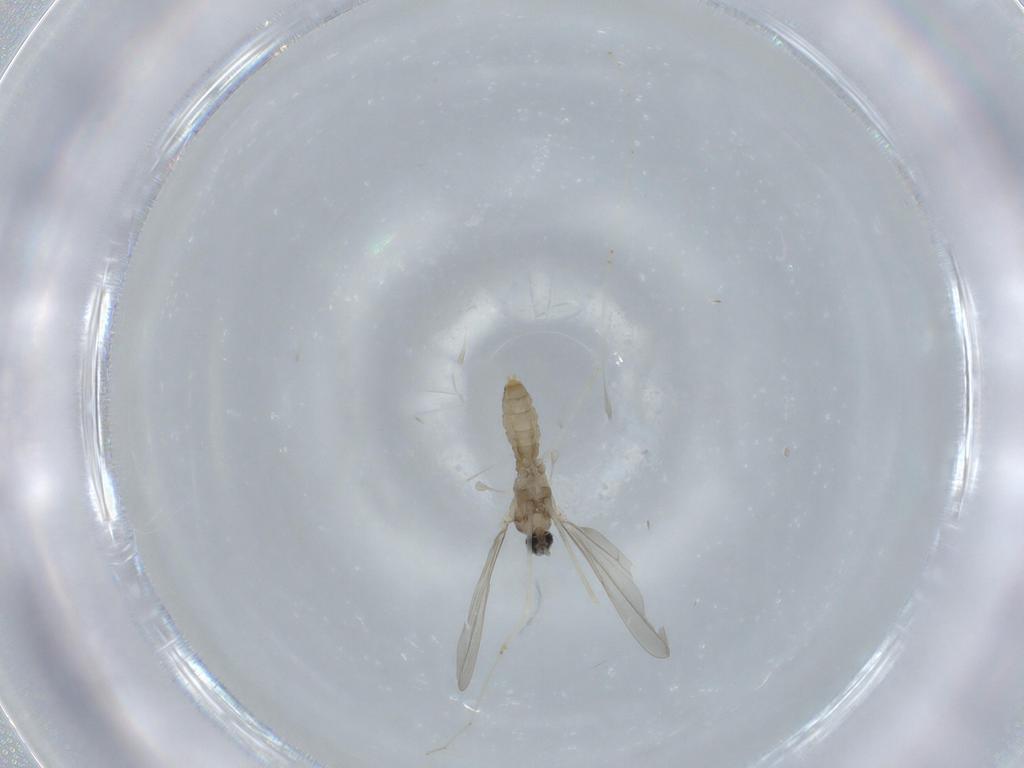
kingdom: Animalia
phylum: Arthropoda
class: Insecta
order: Diptera
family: Cecidomyiidae
